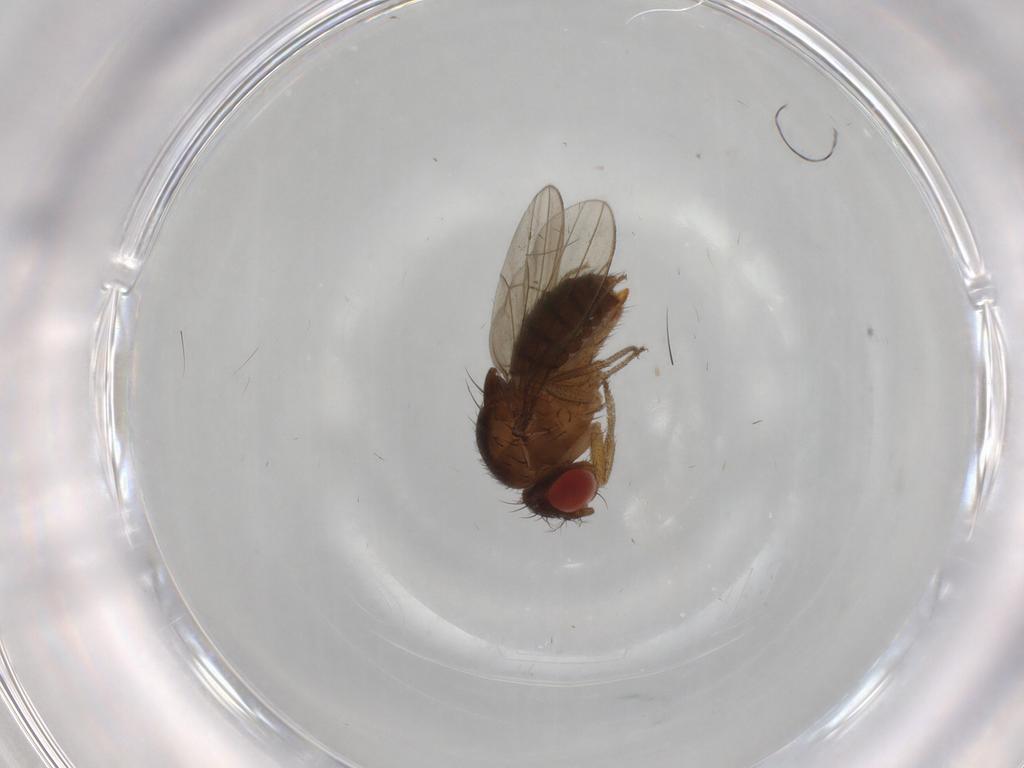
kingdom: Animalia
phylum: Arthropoda
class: Insecta
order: Diptera
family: Drosophilidae
